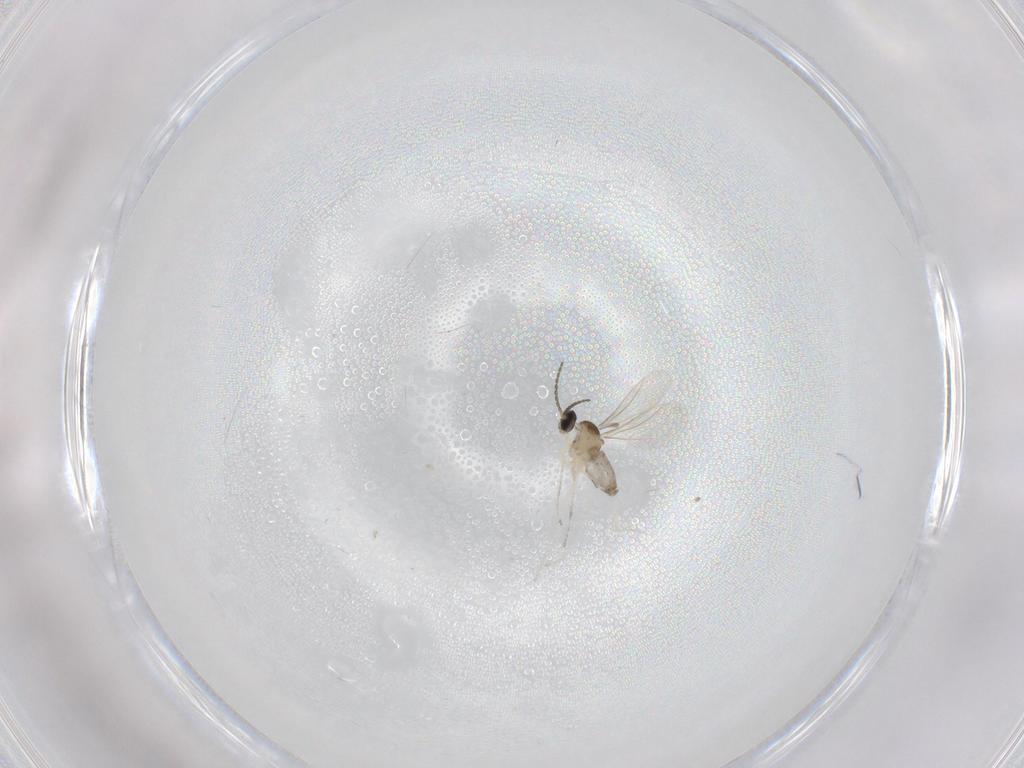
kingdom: Animalia
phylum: Arthropoda
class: Insecta
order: Diptera
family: Cecidomyiidae
